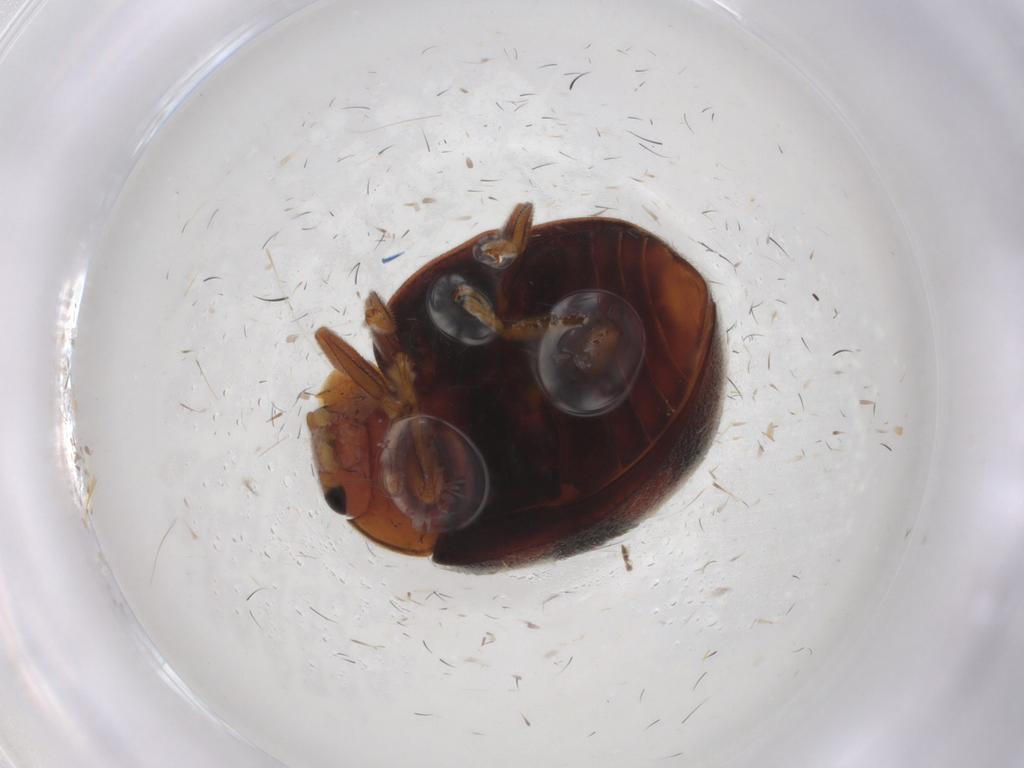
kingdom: Animalia
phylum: Arthropoda
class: Insecta
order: Coleoptera
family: Coccinellidae
